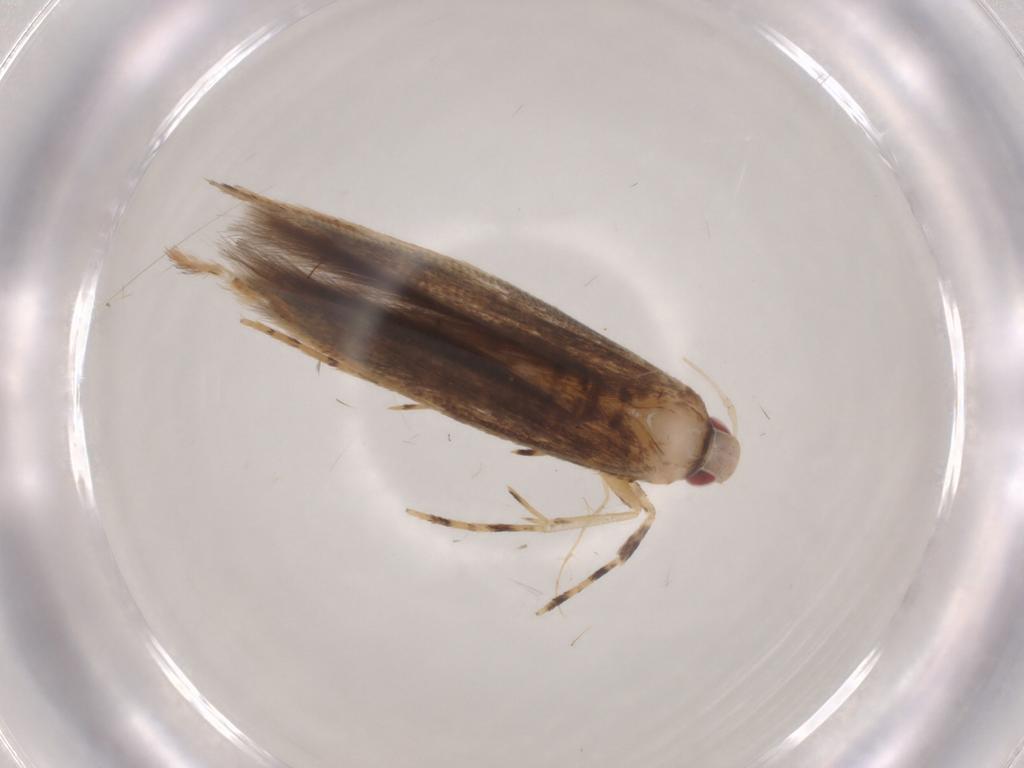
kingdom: Animalia
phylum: Arthropoda
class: Insecta
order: Lepidoptera
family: Cosmopterigidae
